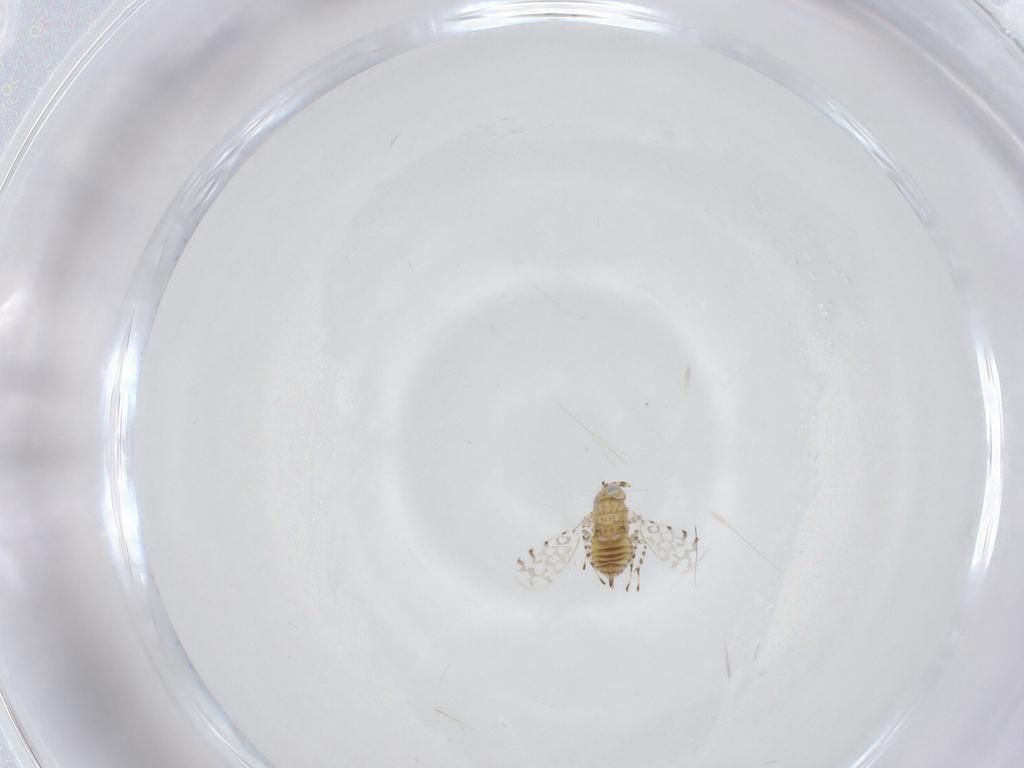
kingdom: Animalia
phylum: Arthropoda
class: Insecta
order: Hymenoptera
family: Mymaridae
